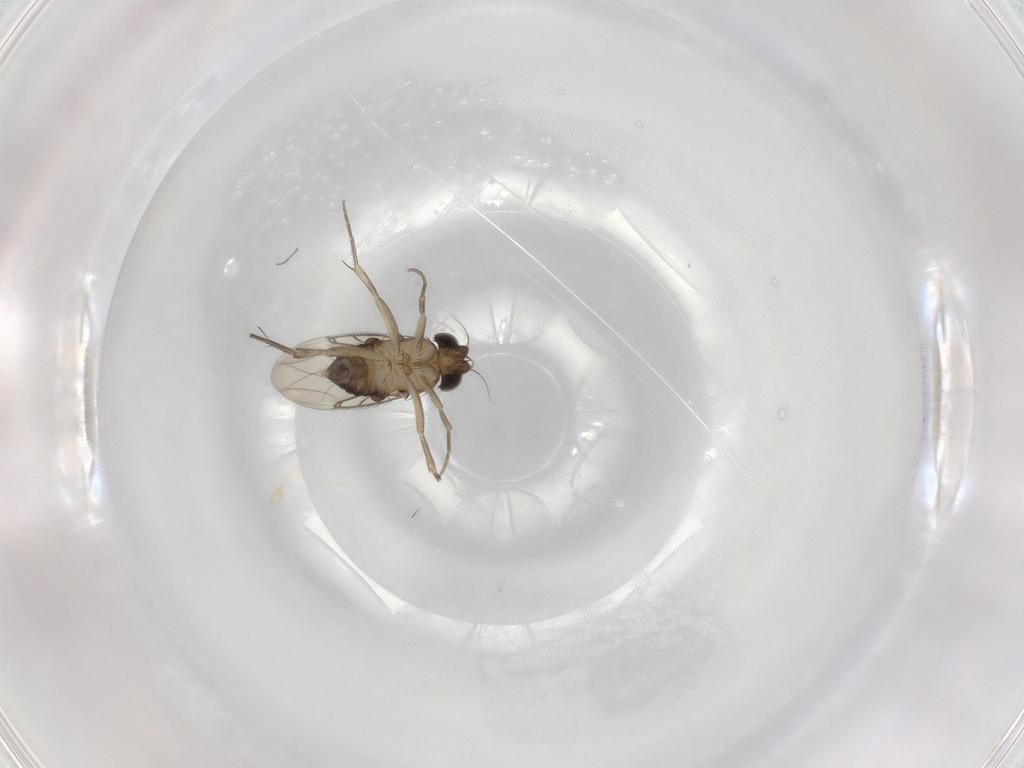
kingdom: Animalia
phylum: Arthropoda
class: Insecta
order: Diptera
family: Phoridae
